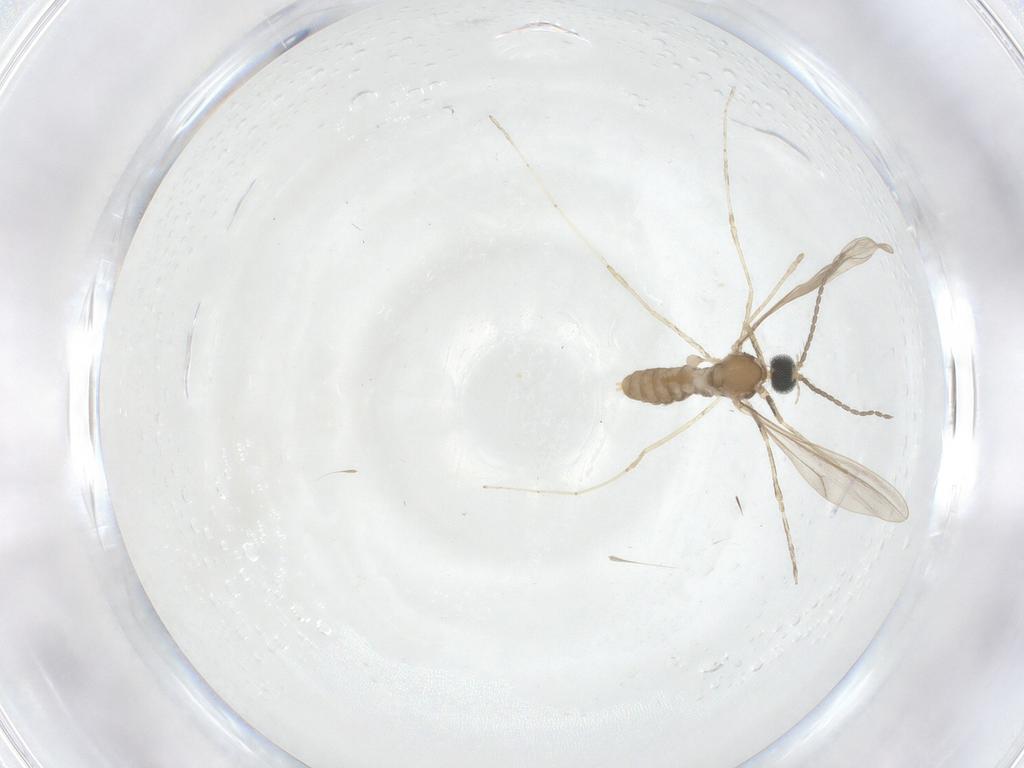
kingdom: Animalia
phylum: Arthropoda
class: Insecta
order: Diptera
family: Cecidomyiidae
